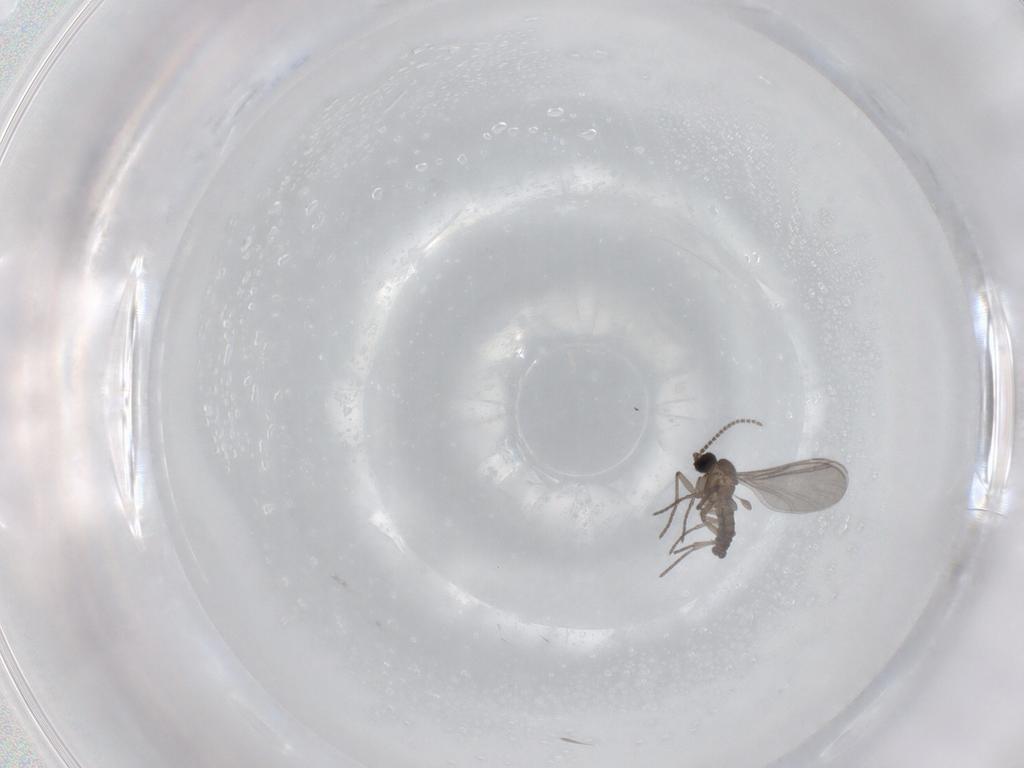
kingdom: Animalia
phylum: Arthropoda
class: Insecta
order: Diptera
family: Sciaridae
